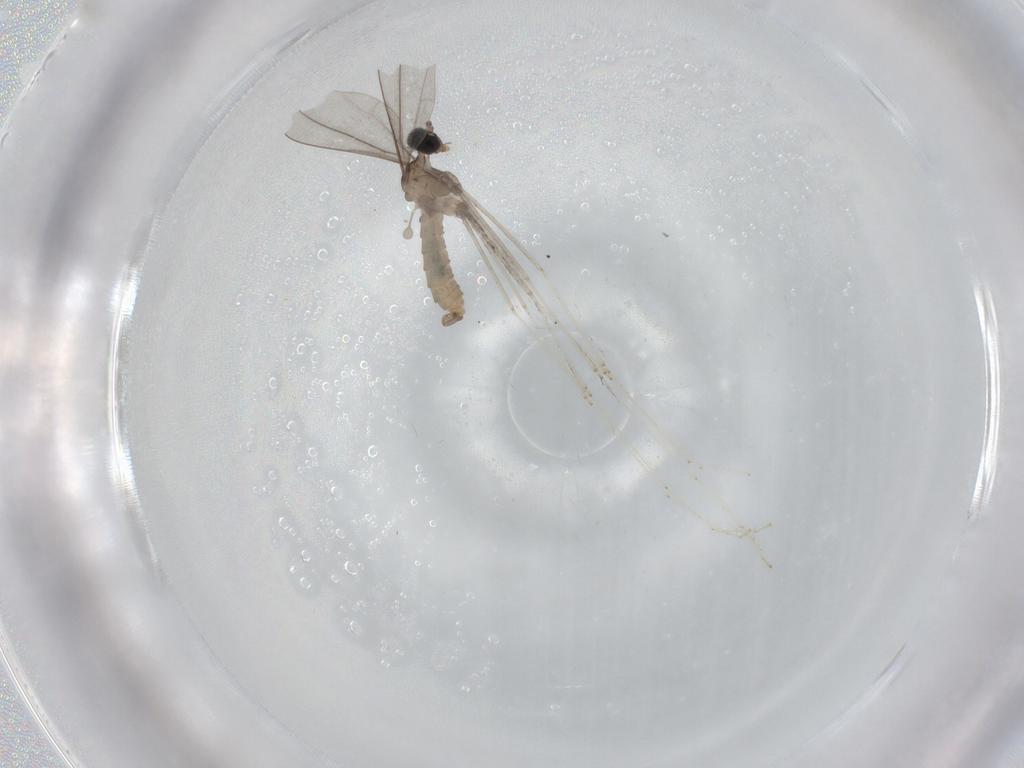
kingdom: Animalia
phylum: Arthropoda
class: Insecta
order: Diptera
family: Cecidomyiidae
